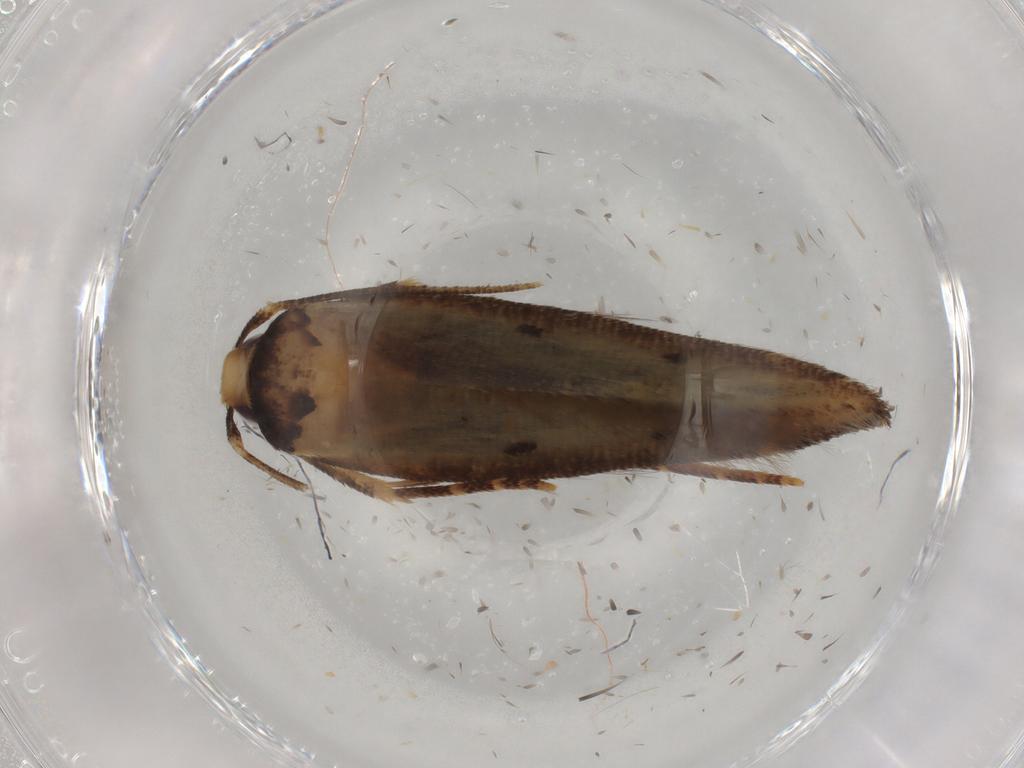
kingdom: Animalia
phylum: Arthropoda
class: Insecta
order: Lepidoptera
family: Cosmopterigidae
